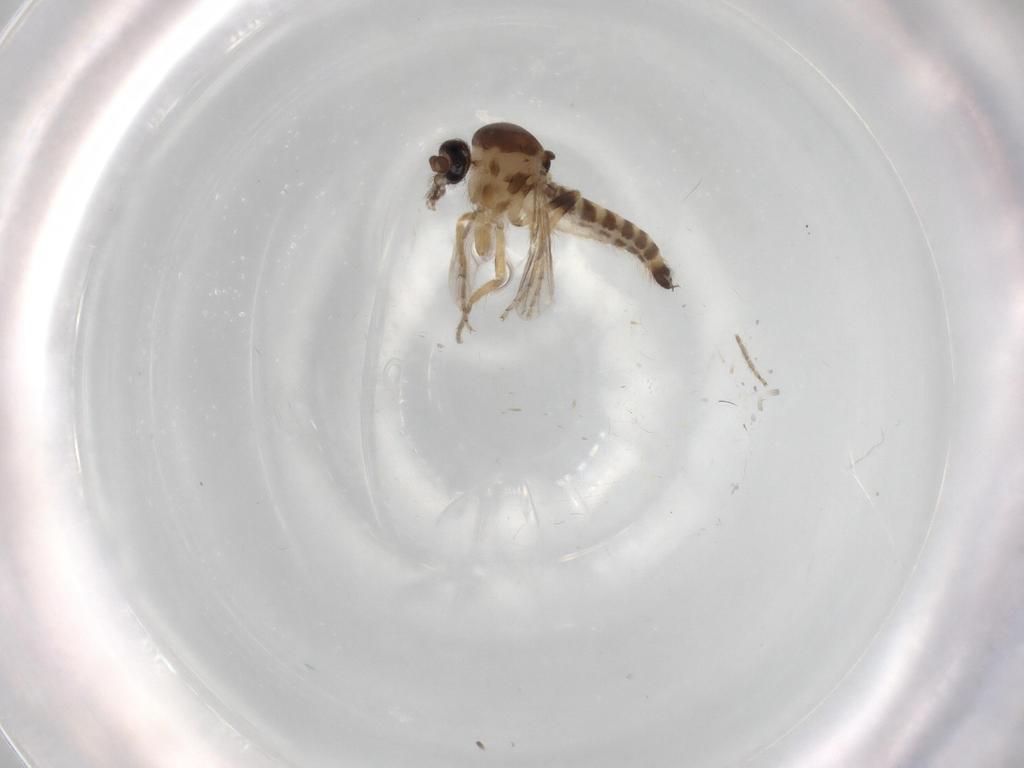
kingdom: Animalia
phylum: Arthropoda
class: Insecta
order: Diptera
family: Ceratopogonidae
